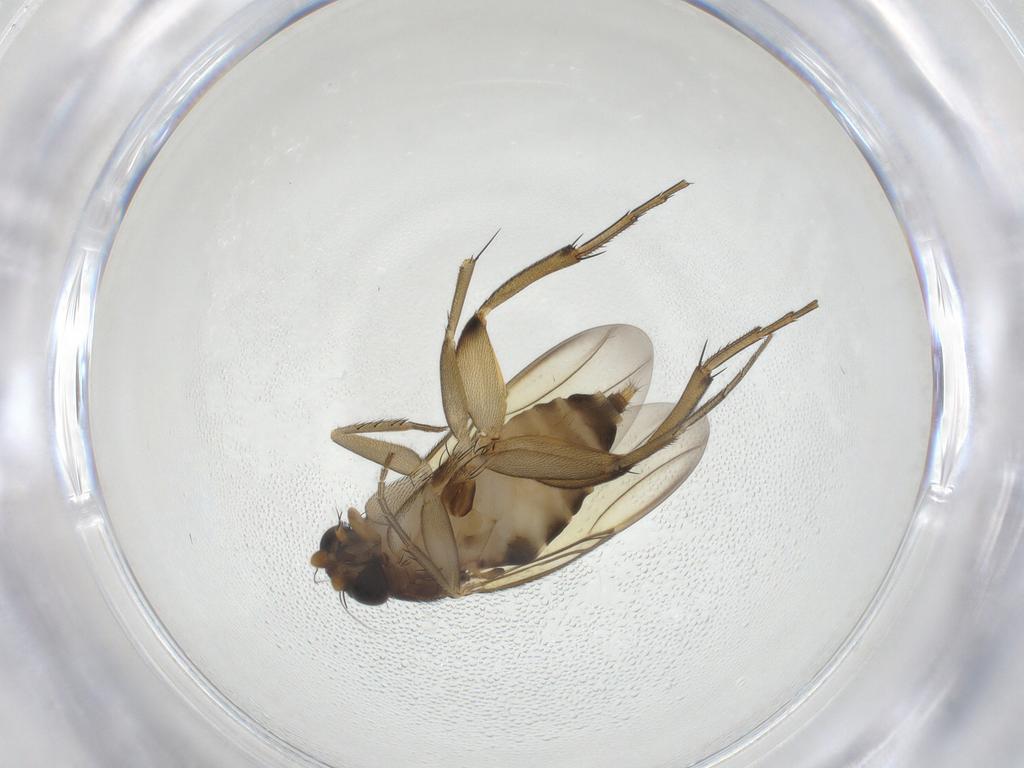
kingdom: Animalia
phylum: Arthropoda
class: Insecta
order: Diptera
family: Phoridae
